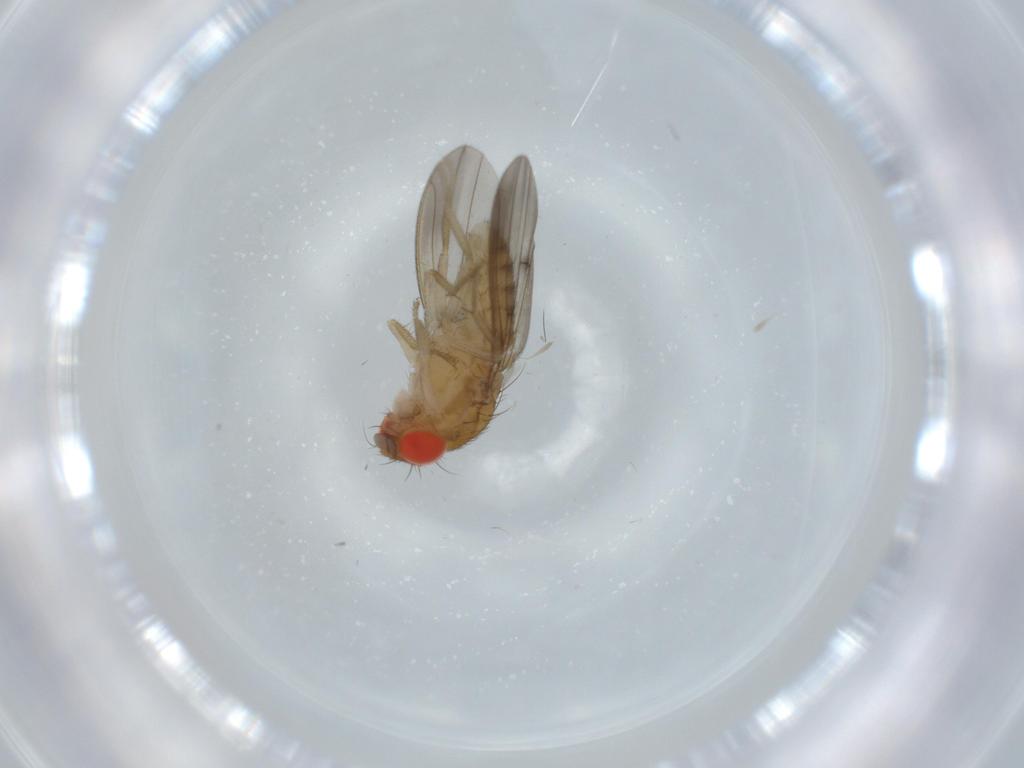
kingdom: Animalia
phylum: Arthropoda
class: Insecta
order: Diptera
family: Drosophilidae
